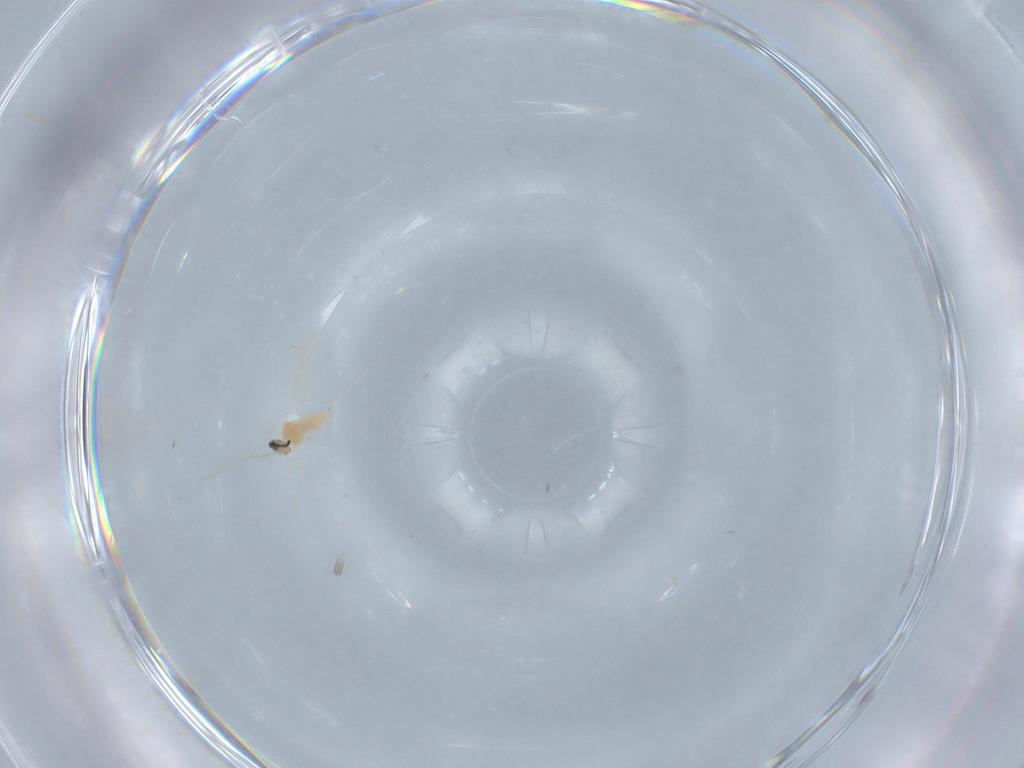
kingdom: Animalia
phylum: Arthropoda
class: Insecta
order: Diptera
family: Cecidomyiidae
